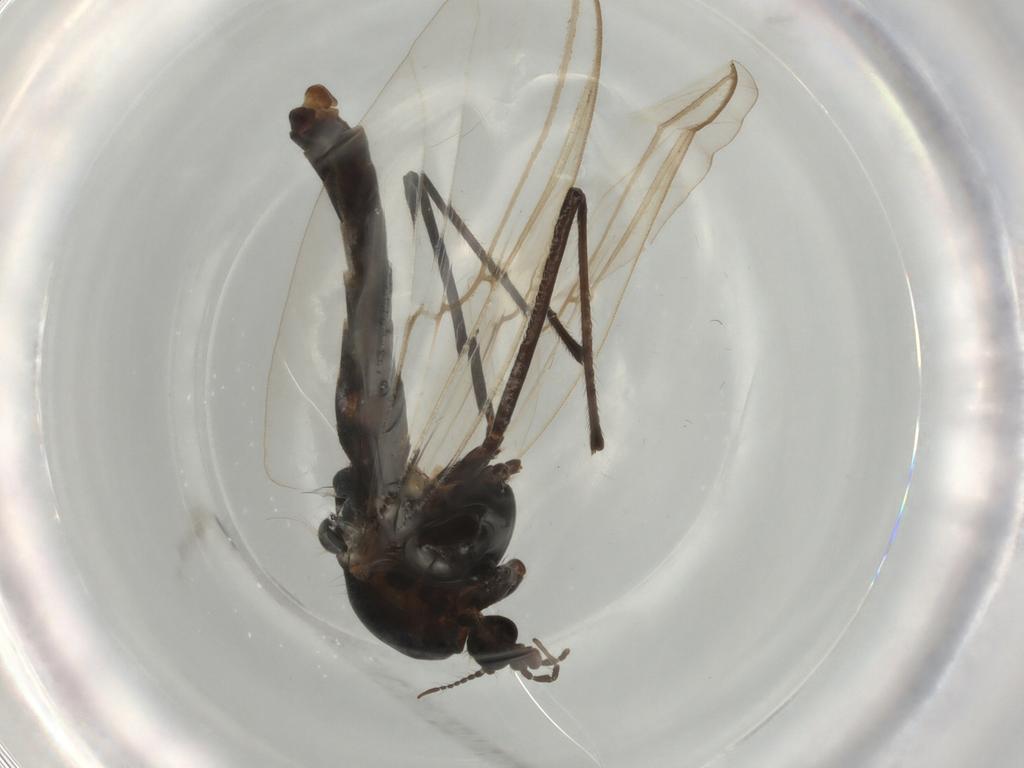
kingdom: Animalia
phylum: Arthropoda
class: Insecta
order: Diptera
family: Chironomidae
